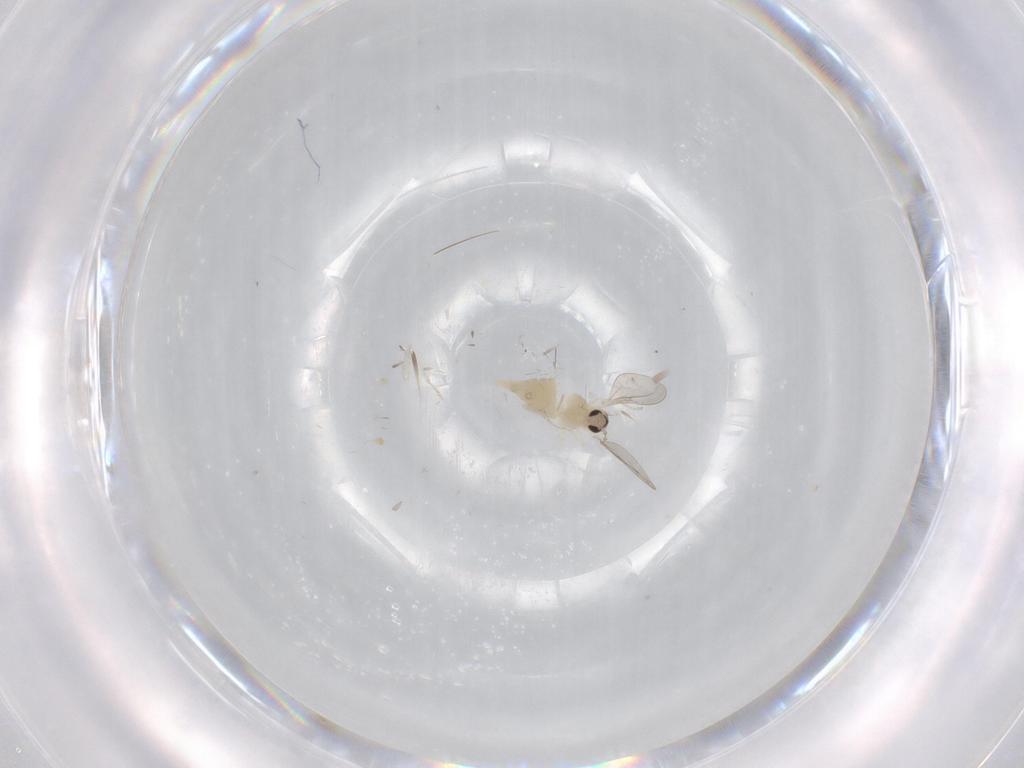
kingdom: Animalia
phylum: Arthropoda
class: Insecta
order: Diptera
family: Cecidomyiidae
